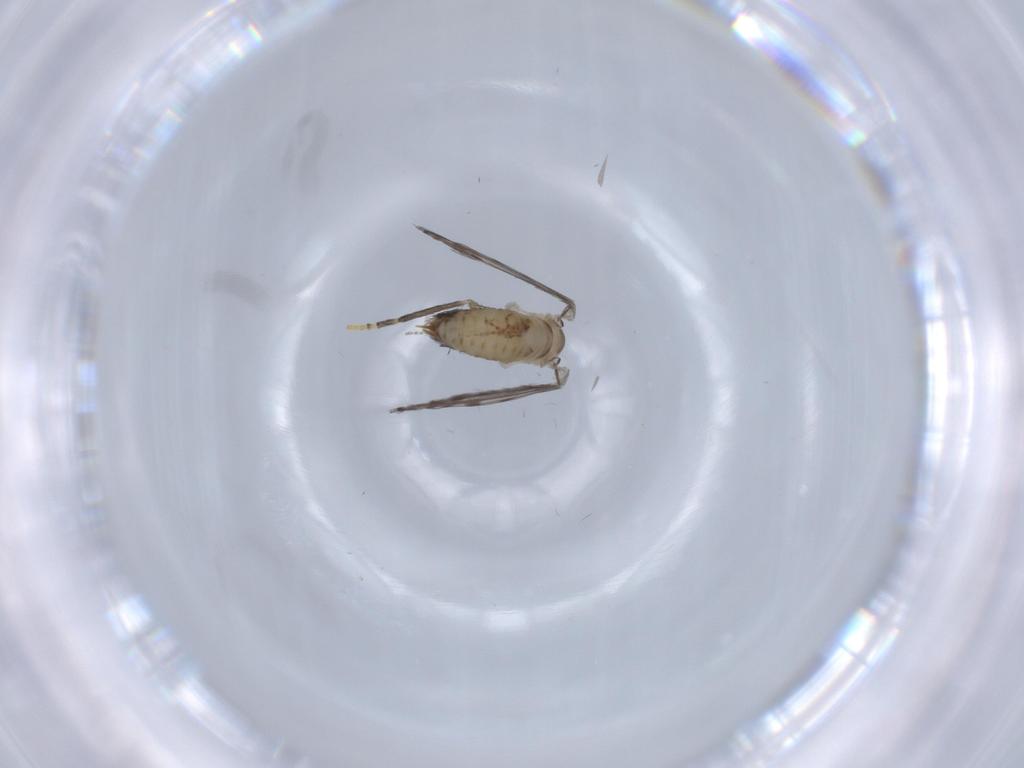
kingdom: Animalia
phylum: Arthropoda
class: Insecta
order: Diptera
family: Psychodidae
